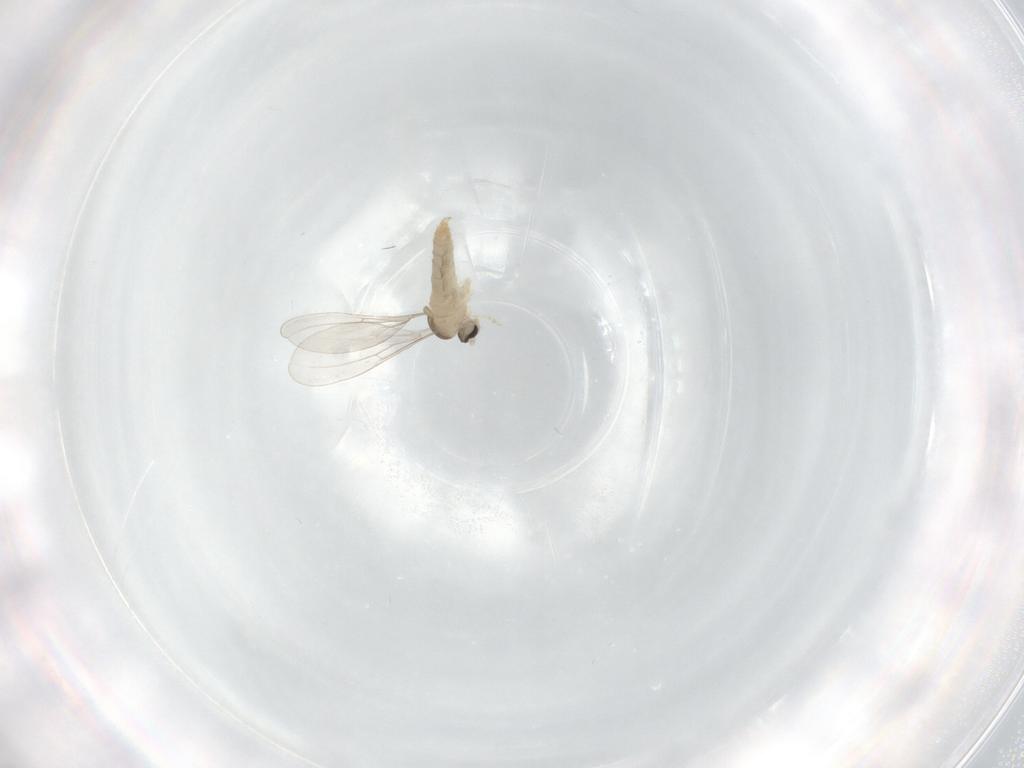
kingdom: Animalia
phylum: Arthropoda
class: Insecta
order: Diptera
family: Cecidomyiidae
